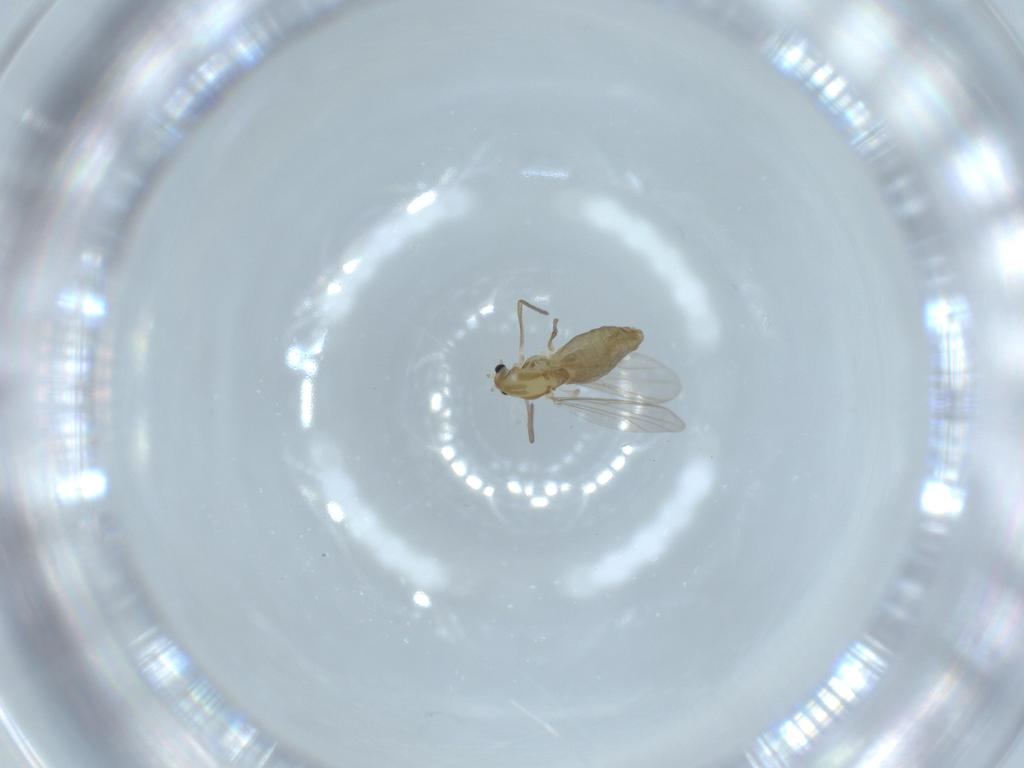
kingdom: Animalia
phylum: Arthropoda
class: Insecta
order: Diptera
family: Chironomidae
